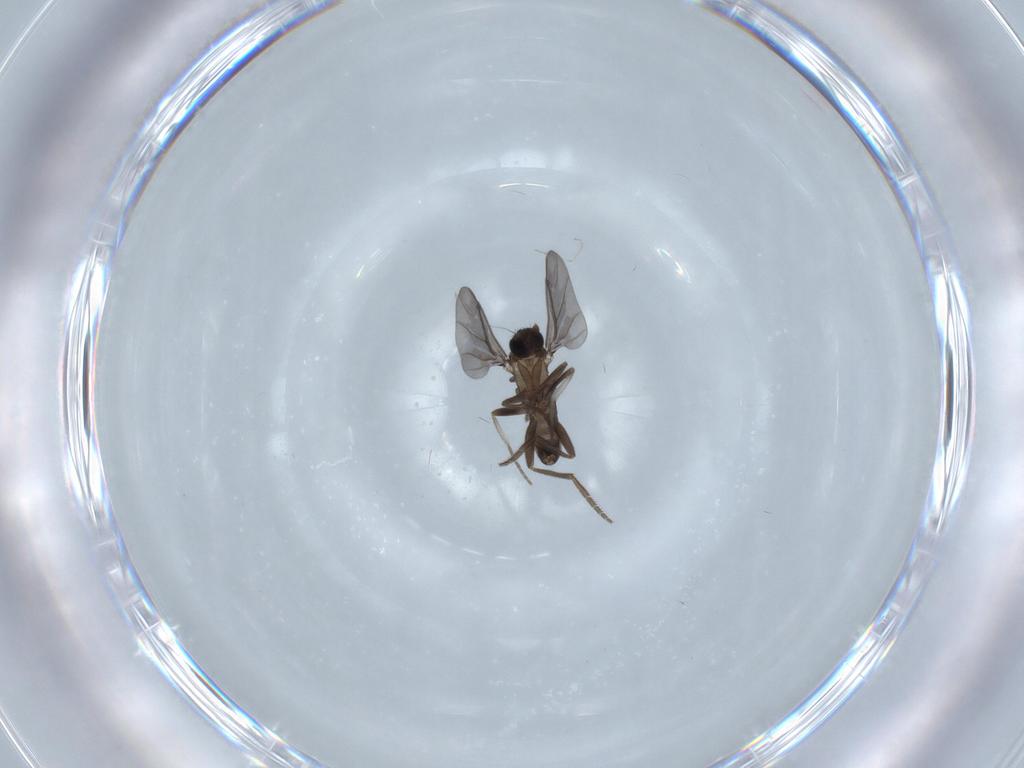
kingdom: Animalia
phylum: Arthropoda
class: Insecta
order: Diptera
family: Phoridae
